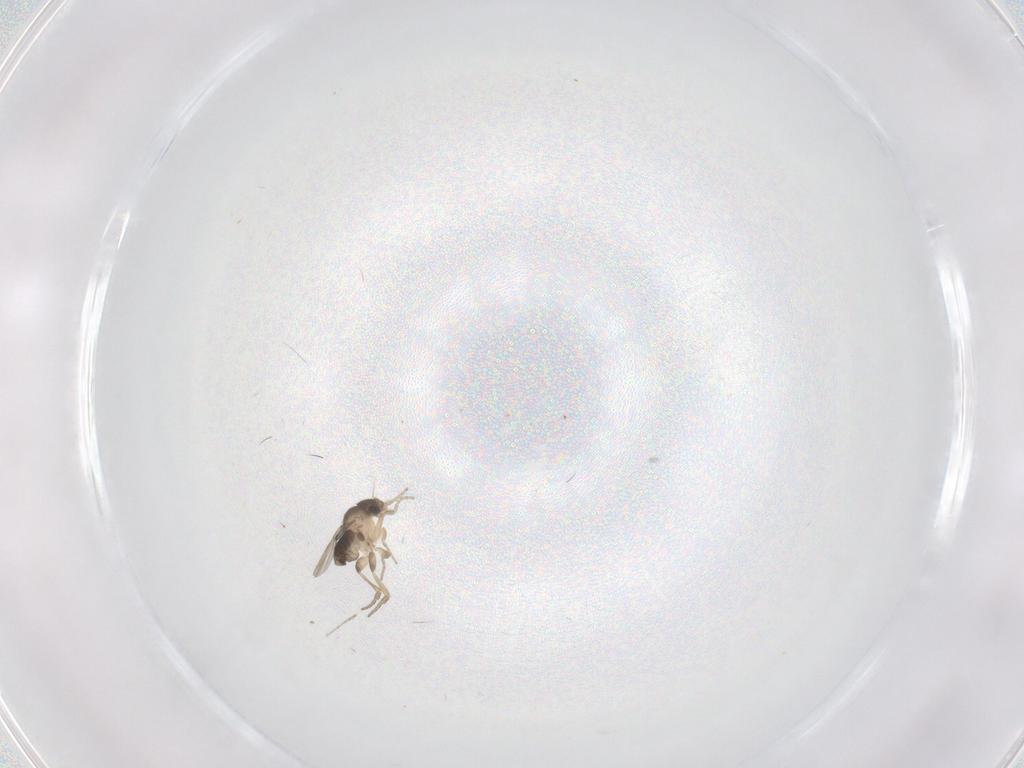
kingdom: Animalia
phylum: Arthropoda
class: Insecta
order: Diptera
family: Phoridae
